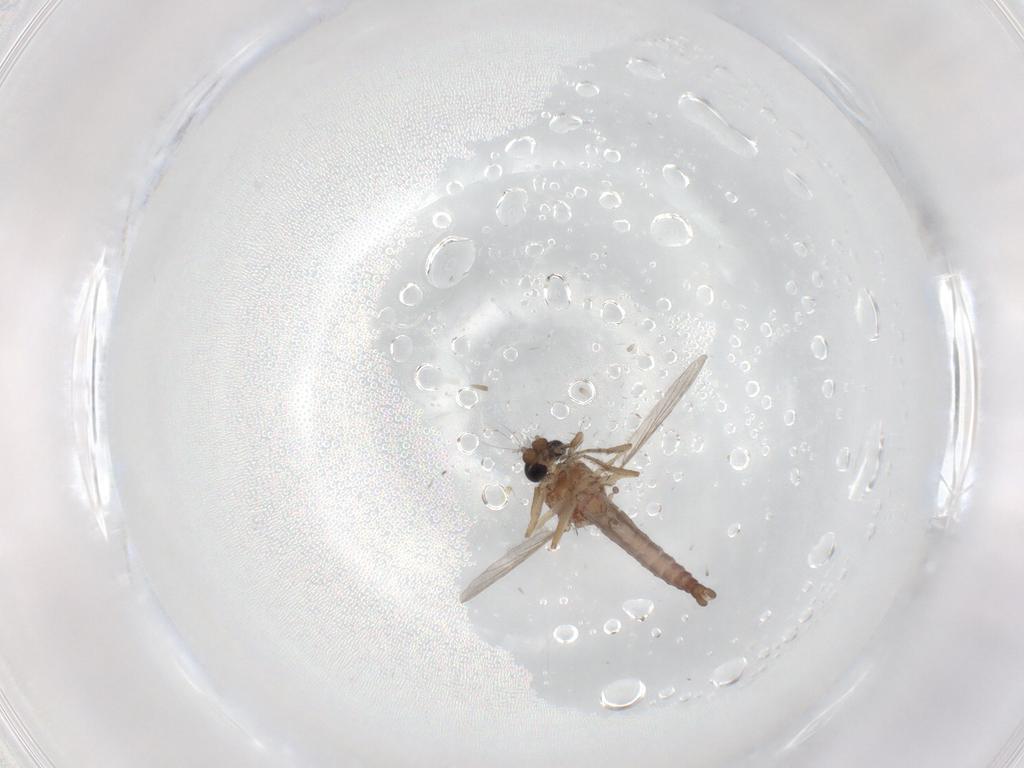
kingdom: Animalia
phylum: Arthropoda
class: Insecta
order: Diptera
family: Ceratopogonidae
